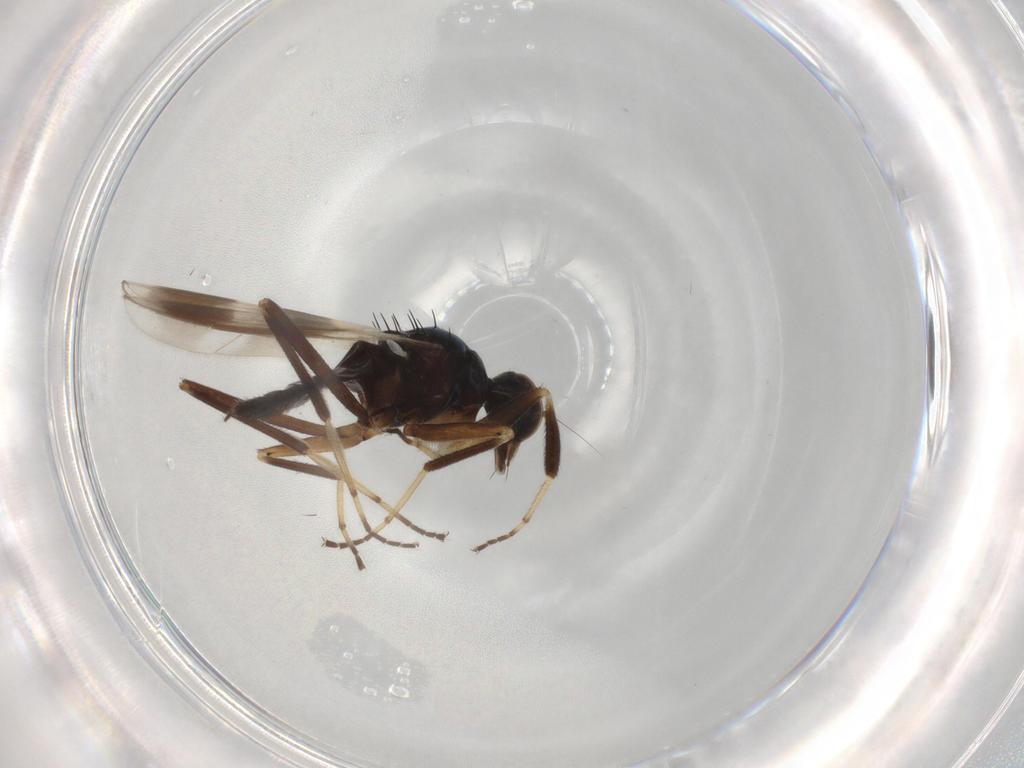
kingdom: Animalia
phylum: Arthropoda
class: Insecta
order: Diptera
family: Hybotidae
